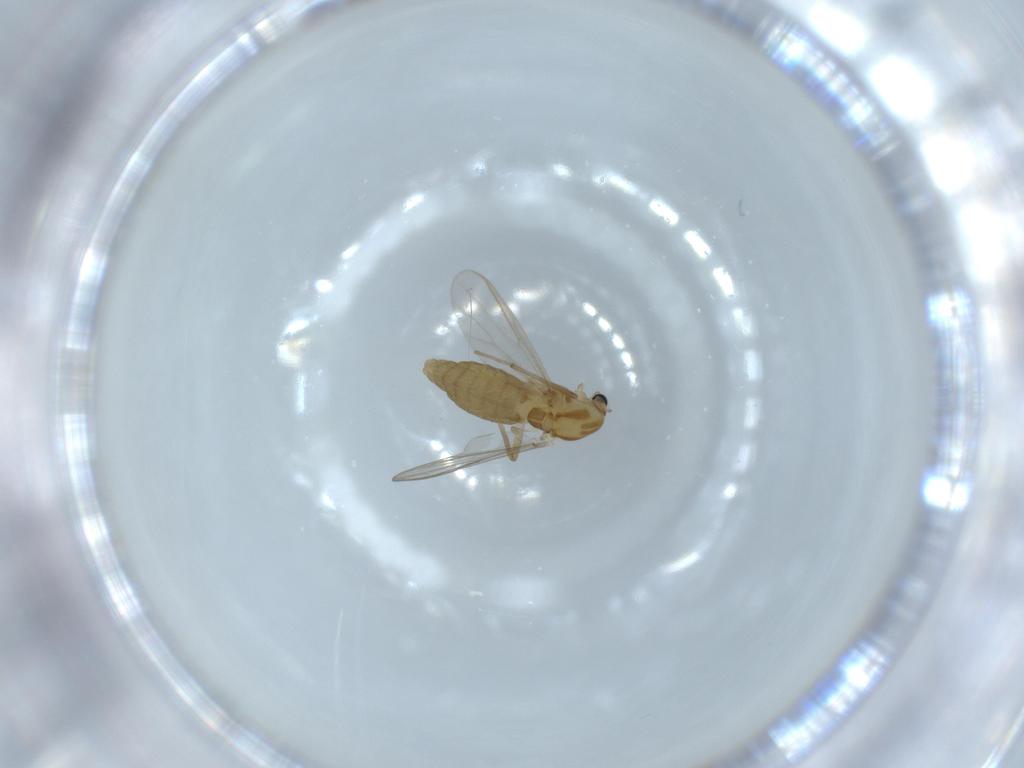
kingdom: Animalia
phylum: Arthropoda
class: Insecta
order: Diptera
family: Chironomidae
